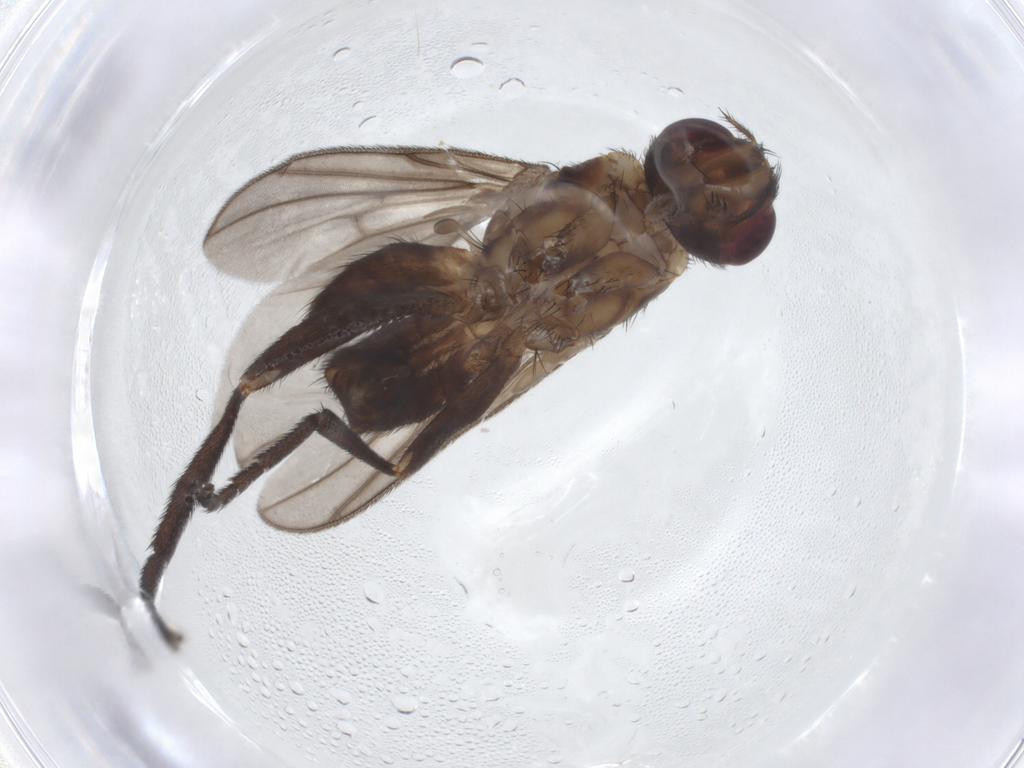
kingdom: Animalia
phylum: Arthropoda
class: Insecta
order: Diptera
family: Calliphoridae
